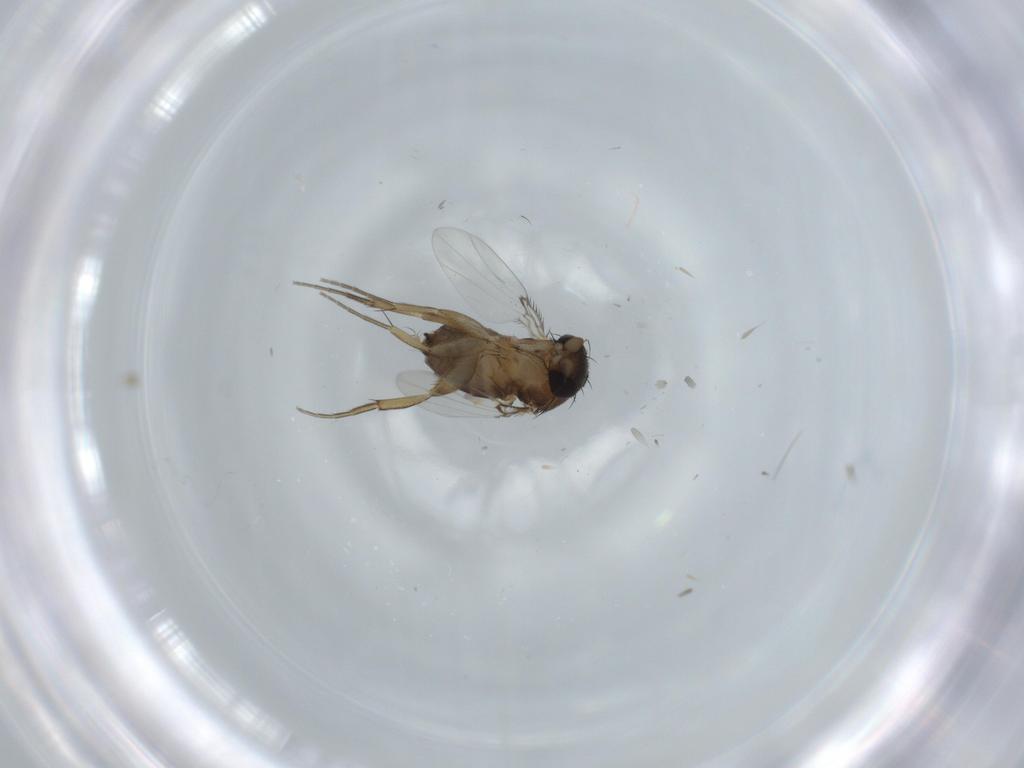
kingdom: Animalia
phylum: Arthropoda
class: Insecta
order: Diptera
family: Phoridae
